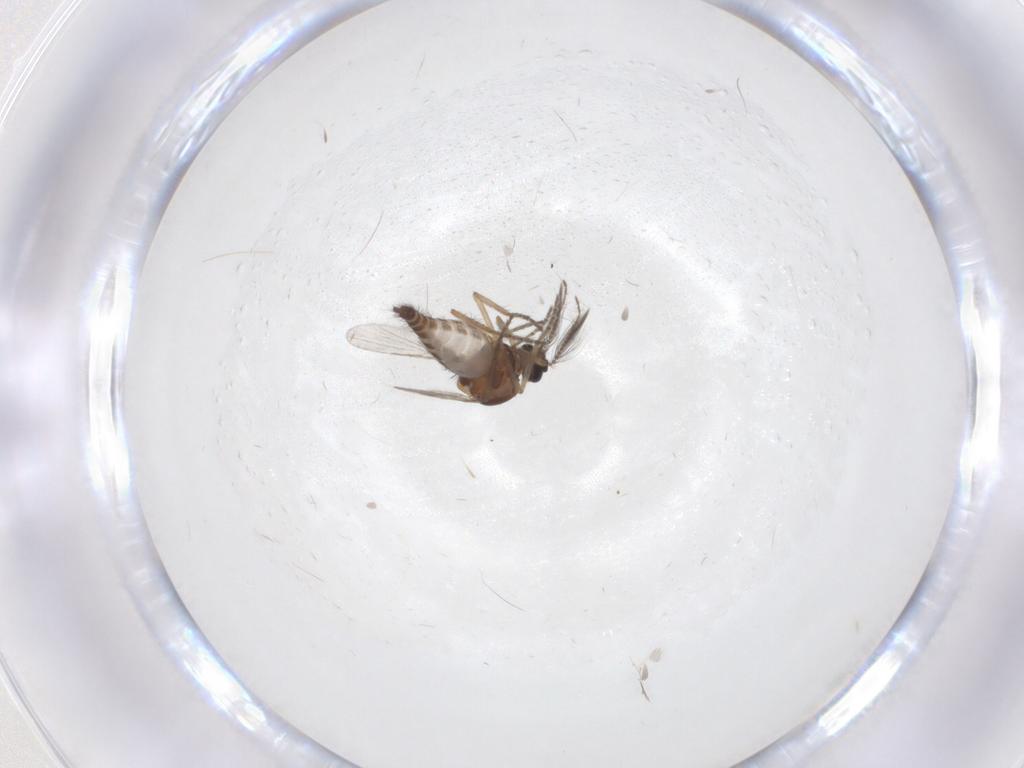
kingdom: Animalia
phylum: Arthropoda
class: Insecta
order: Diptera
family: Ceratopogonidae
